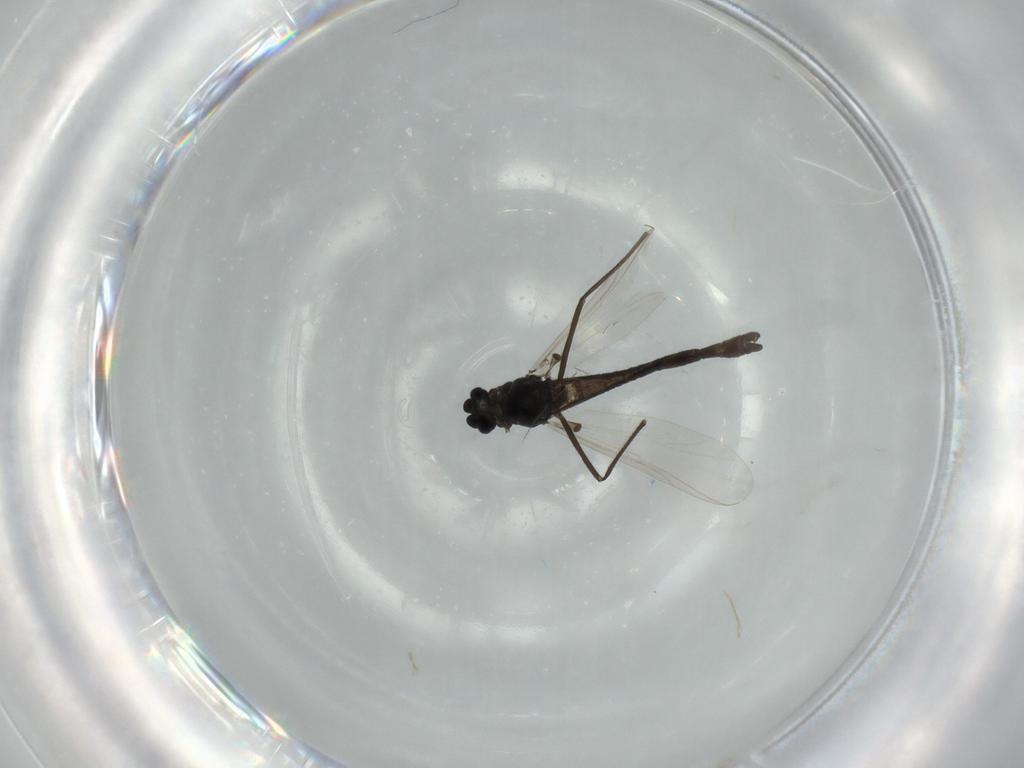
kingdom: Animalia
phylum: Arthropoda
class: Insecta
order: Diptera
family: Chironomidae
